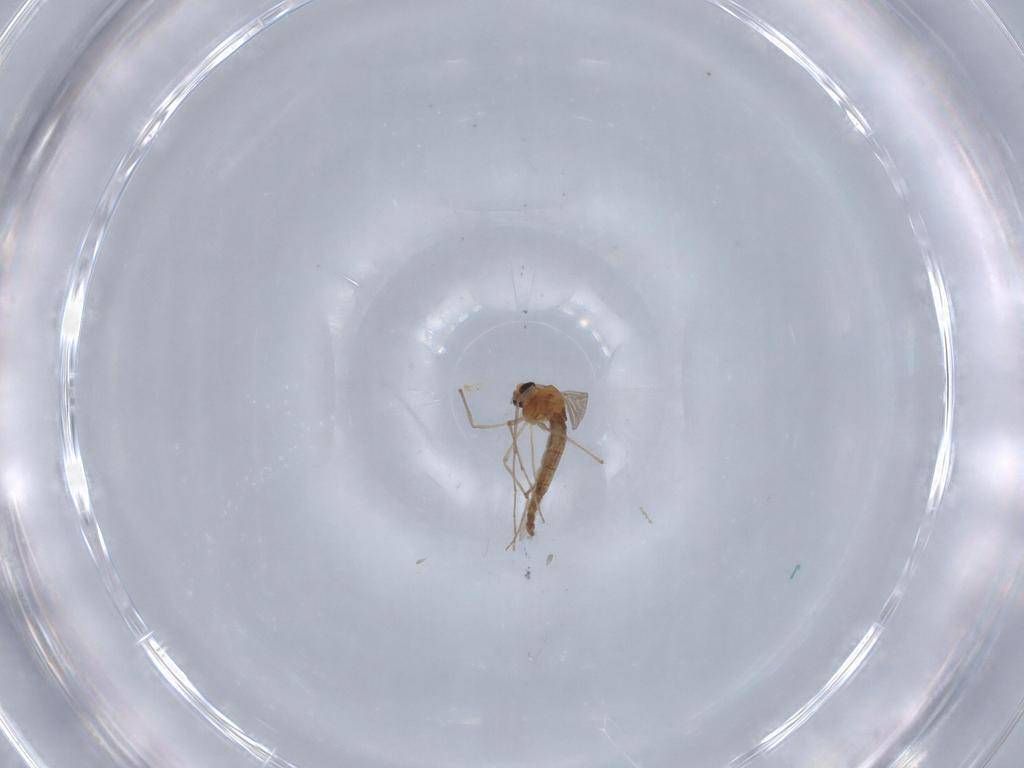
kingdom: Animalia
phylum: Arthropoda
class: Insecta
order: Diptera
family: Chironomidae
